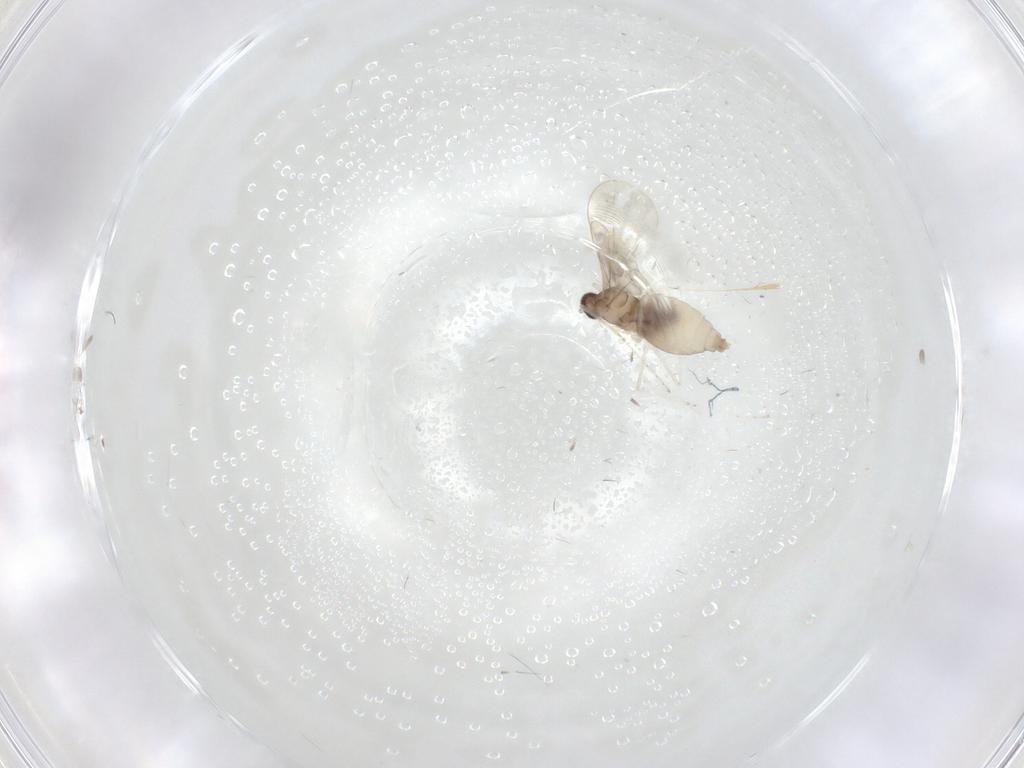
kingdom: Animalia
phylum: Arthropoda
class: Insecta
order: Diptera
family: Cecidomyiidae
